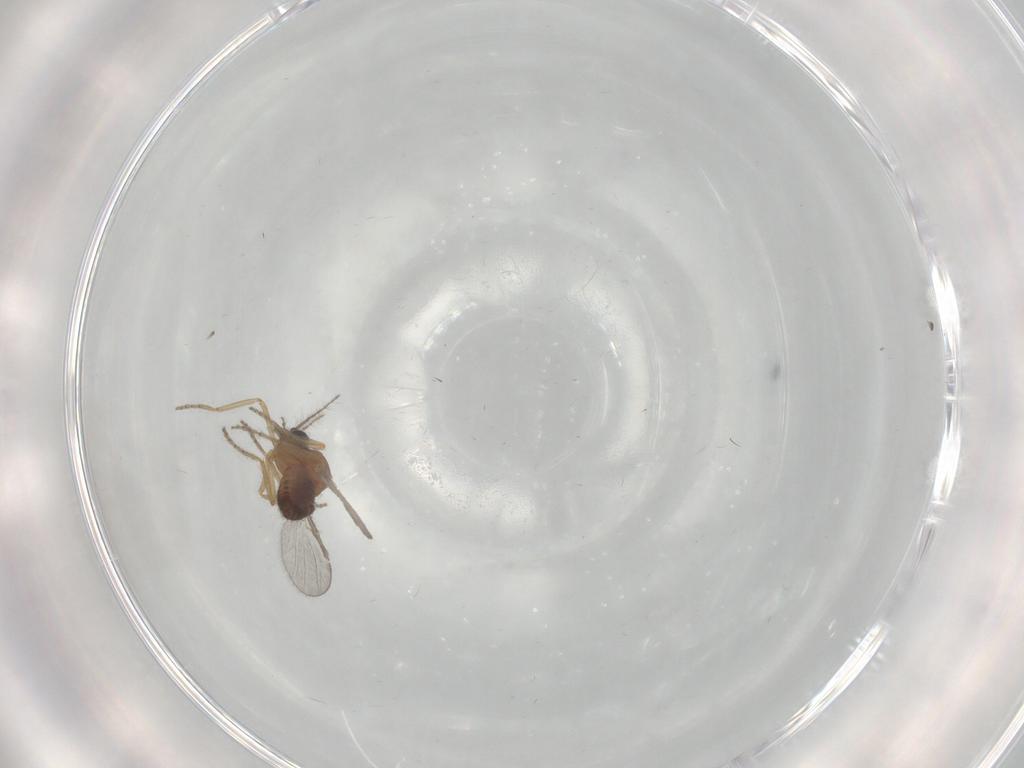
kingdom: Animalia
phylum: Arthropoda
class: Insecta
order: Diptera
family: Ceratopogonidae
